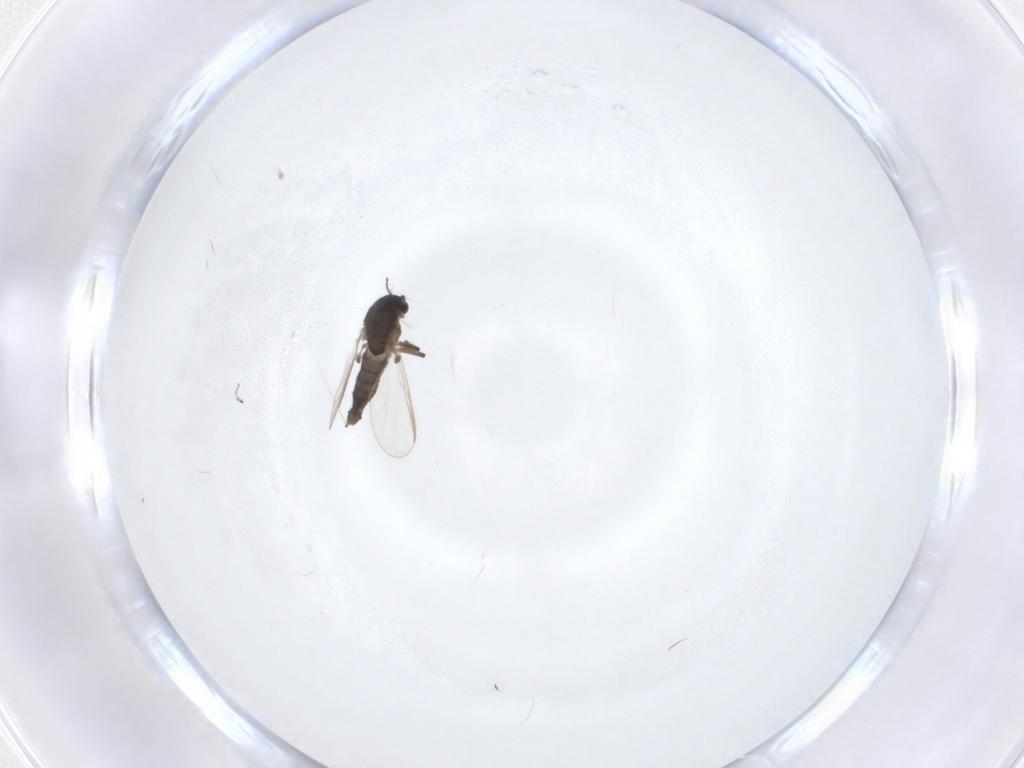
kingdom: Animalia
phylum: Arthropoda
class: Insecta
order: Diptera
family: Chironomidae
